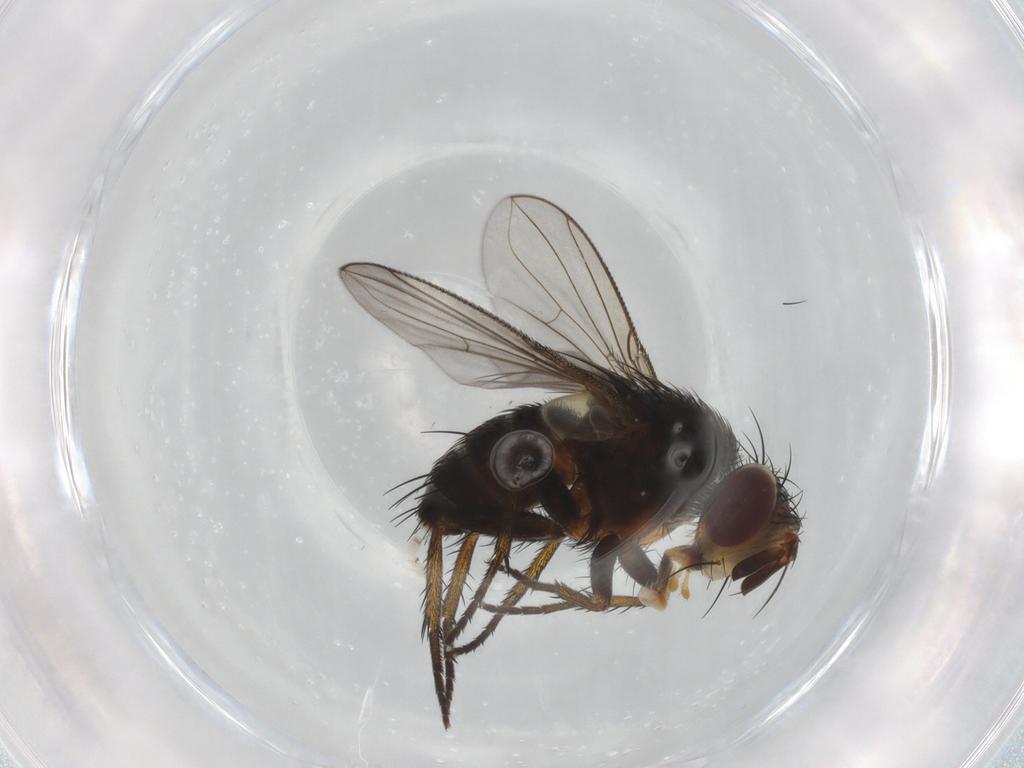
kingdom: Animalia
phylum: Arthropoda
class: Insecta
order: Diptera
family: Tachinidae
